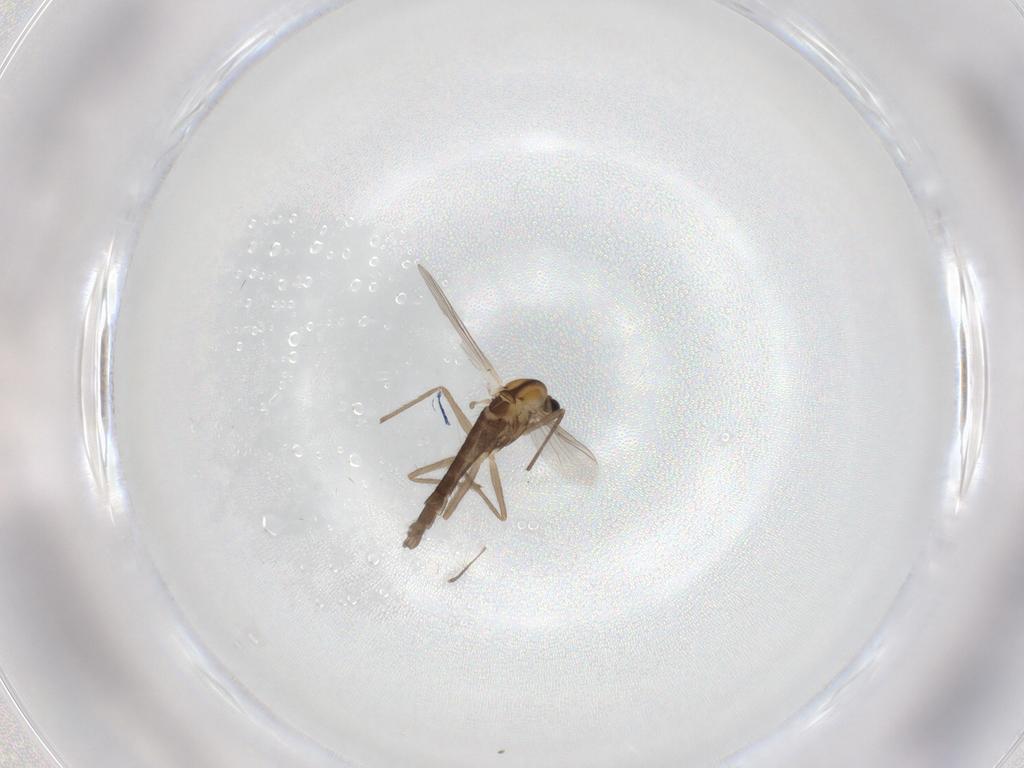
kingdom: Animalia
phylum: Arthropoda
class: Insecta
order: Diptera
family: Chironomidae
